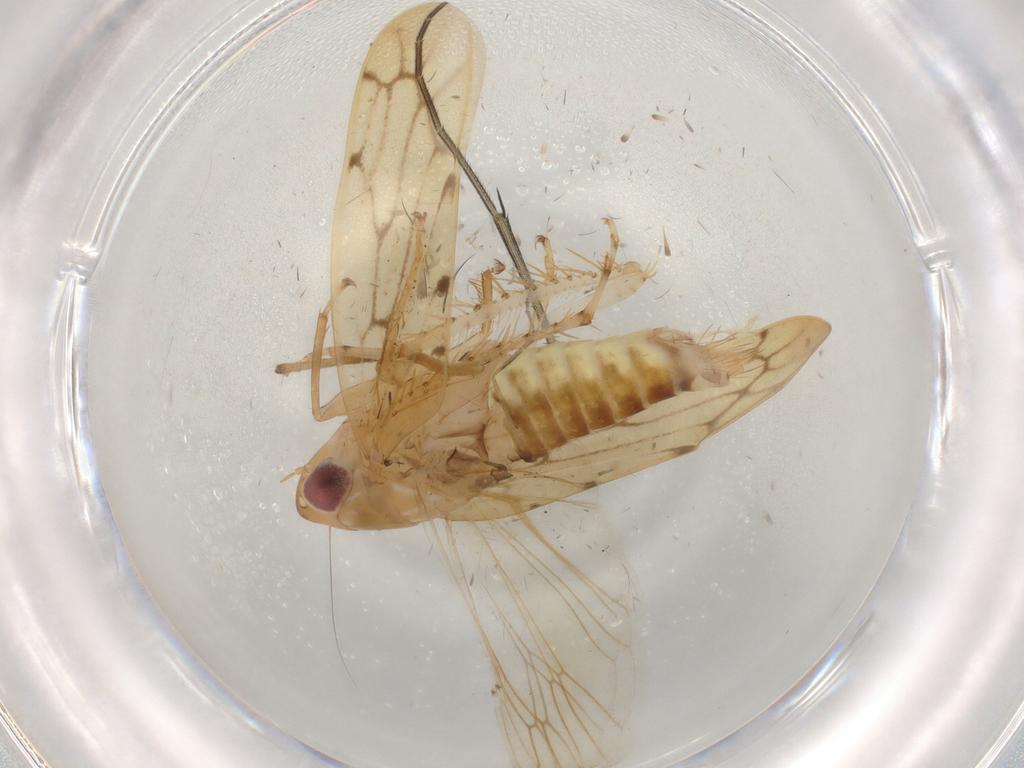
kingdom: Animalia
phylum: Arthropoda
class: Insecta
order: Hemiptera
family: Cicadellidae
